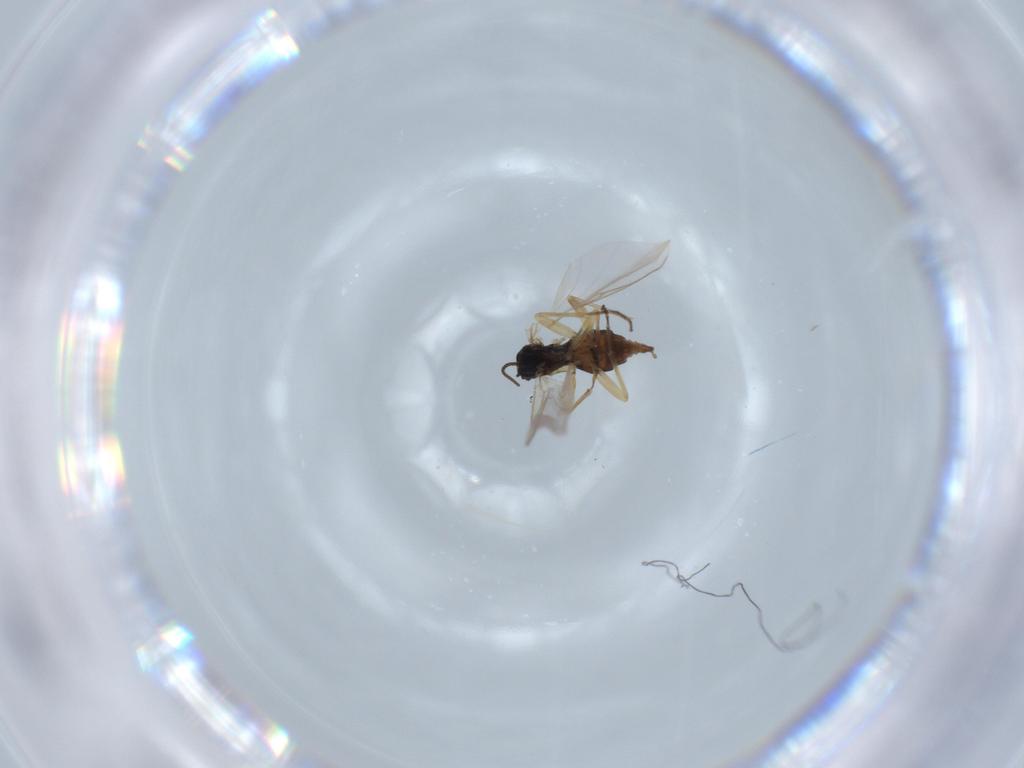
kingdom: Animalia
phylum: Arthropoda
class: Insecta
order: Diptera
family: Sciaridae
